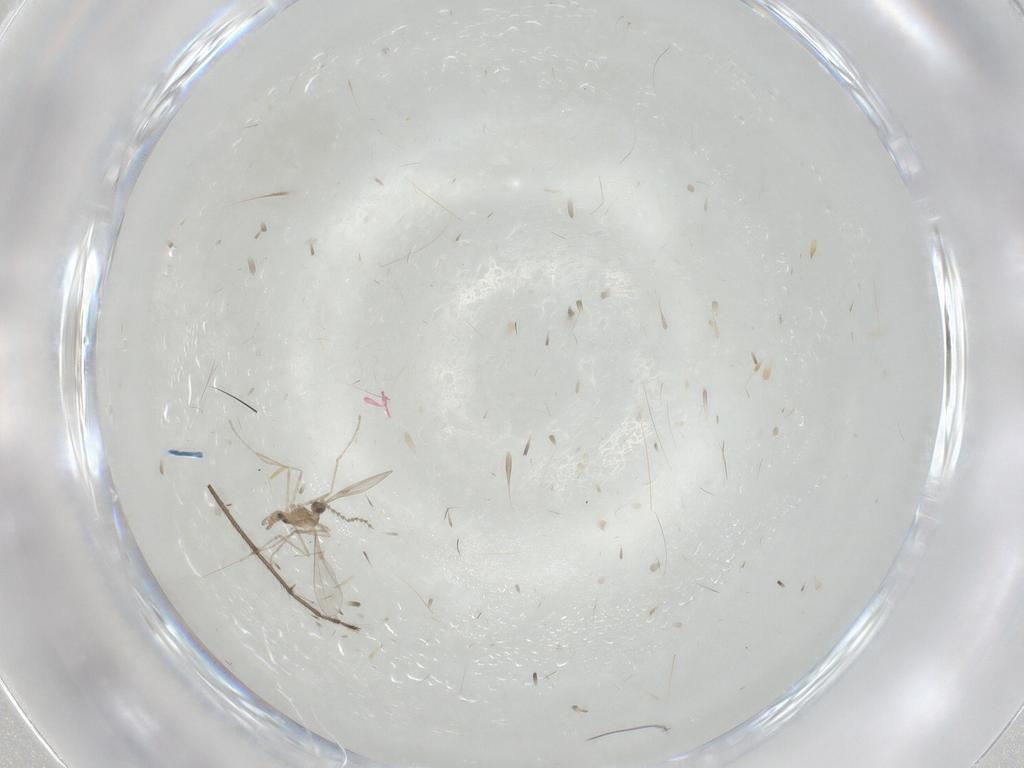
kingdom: Animalia
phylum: Arthropoda
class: Insecta
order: Diptera
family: Cecidomyiidae
